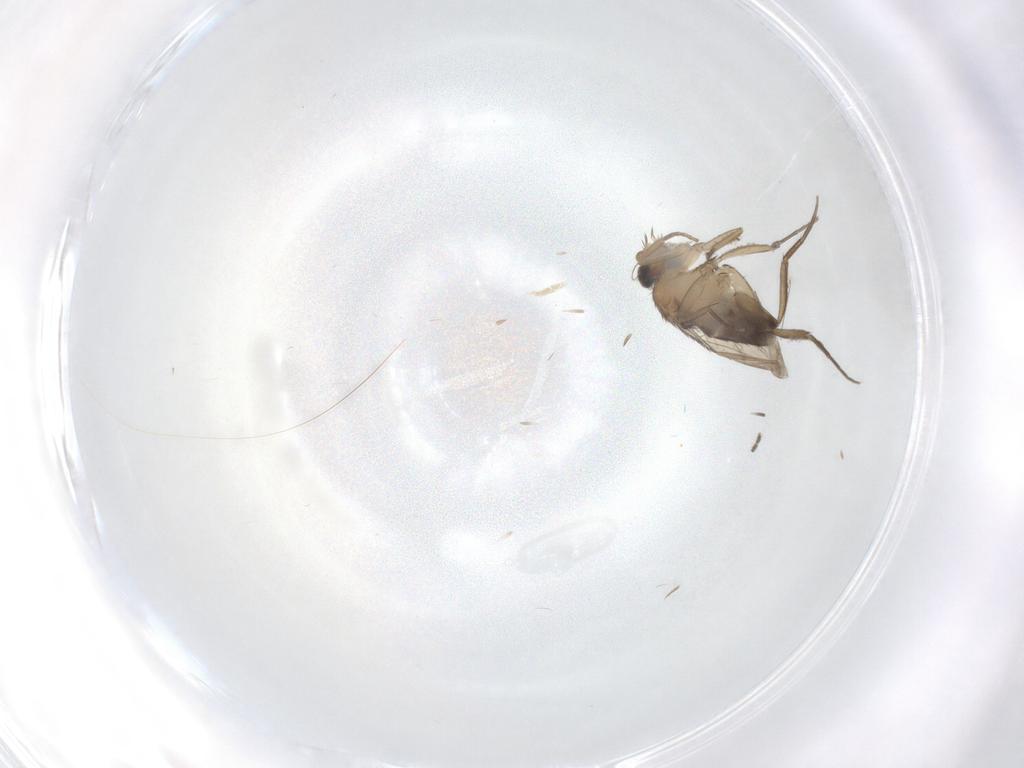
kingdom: Animalia
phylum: Arthropoda
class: Insecta
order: Diptera
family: Phoridae
